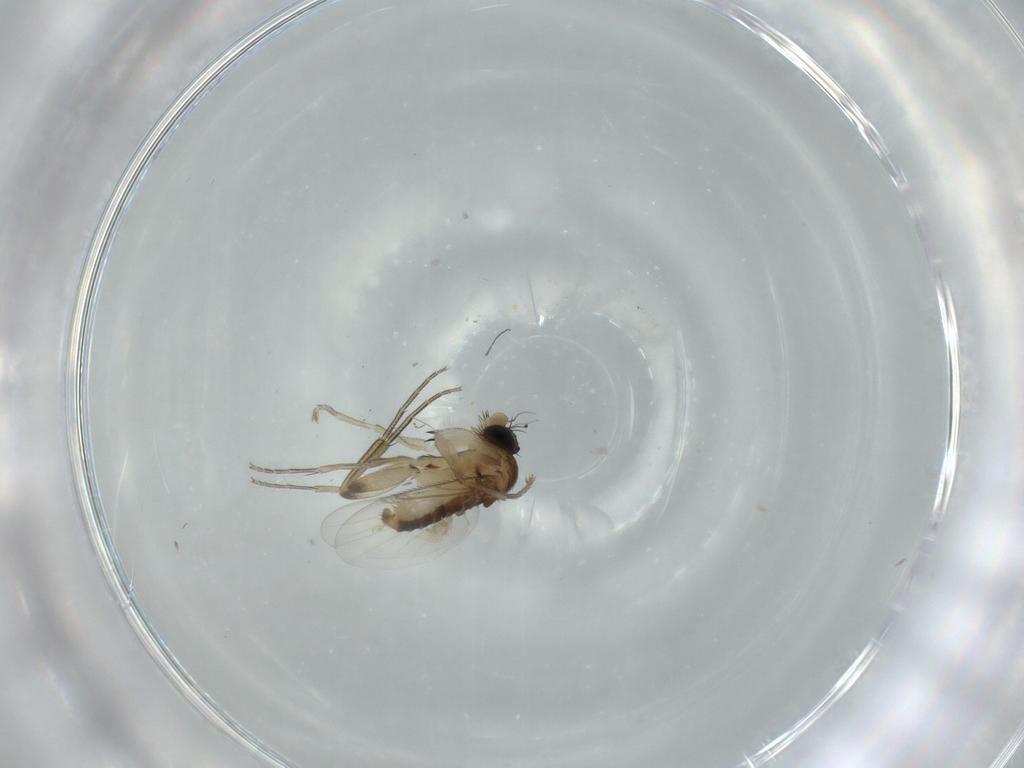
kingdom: Animalia
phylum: Arthropoda
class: Insecta
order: Diptera
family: Phoridae
